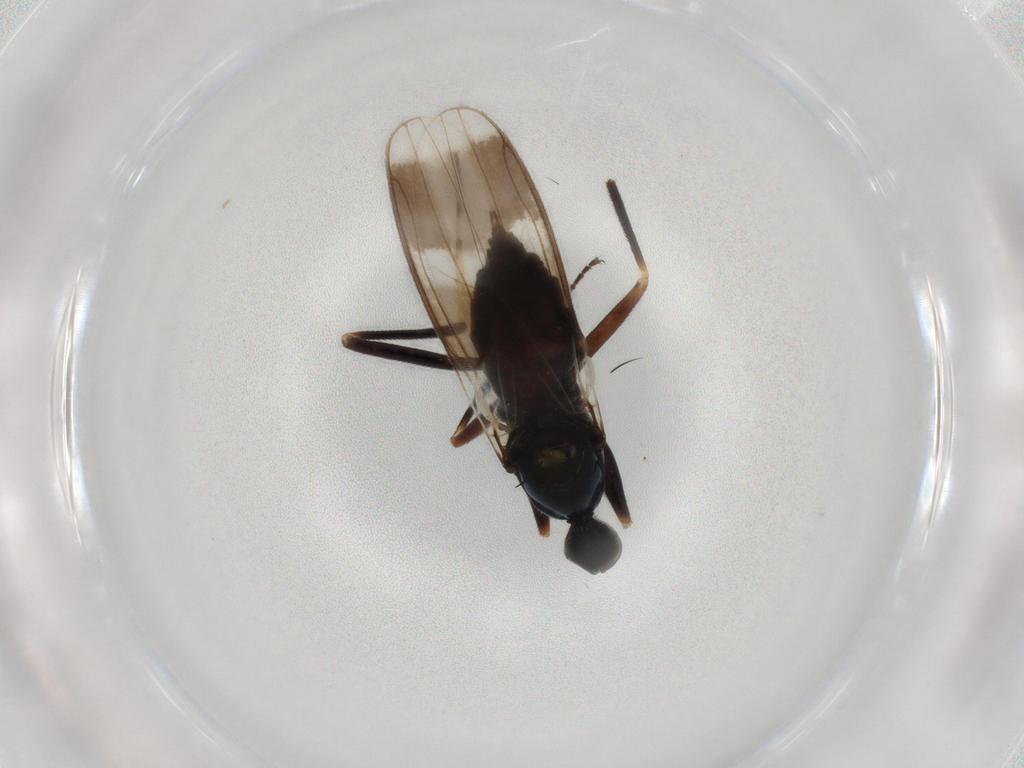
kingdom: Animalia
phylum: Arthropoda
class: Insecta
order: Diptera
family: Hybotidae
